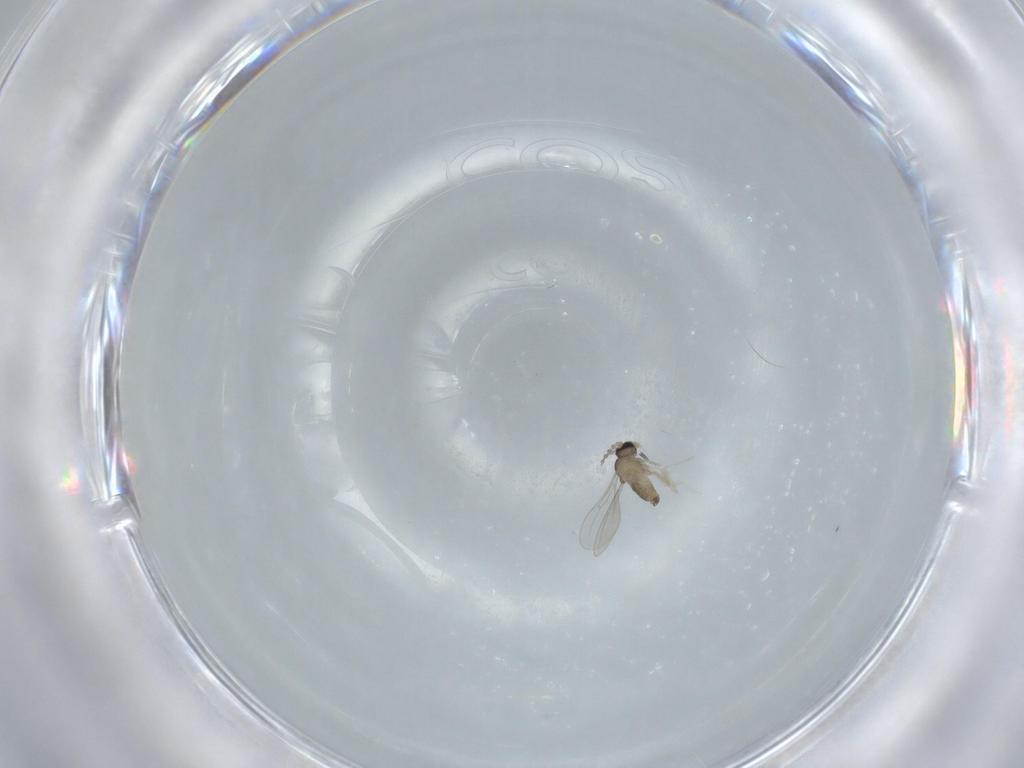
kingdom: Animalia
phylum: Arthropoda
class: Insecta
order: Diptera
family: Cecidomyiidae
